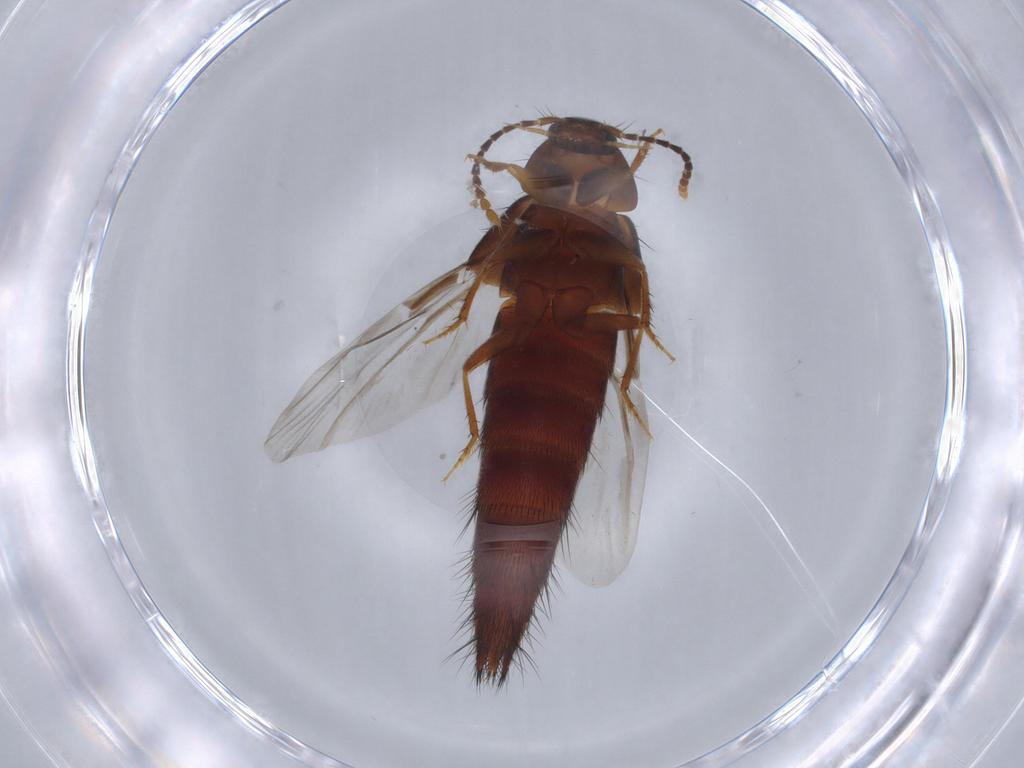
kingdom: Animalia
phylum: Arthropoda
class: Insecta
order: Coleoptera
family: Staphylinidae
